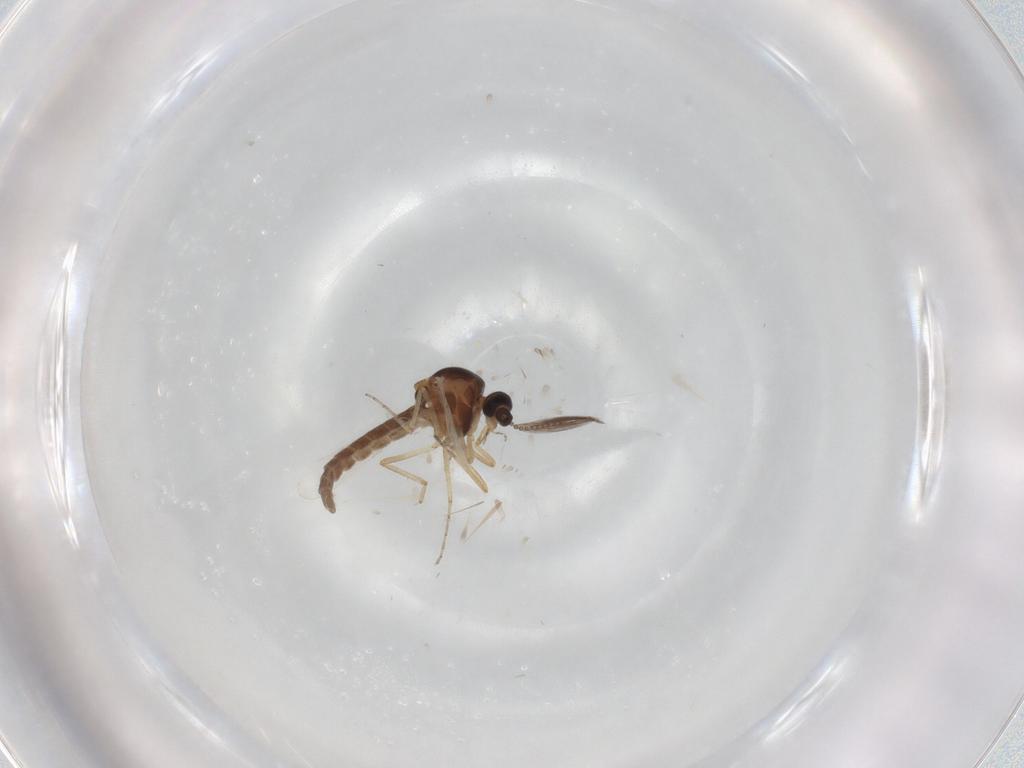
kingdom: Animalia
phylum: Arthropoda
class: Insecta
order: Diptera
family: Ceratopogonidae
